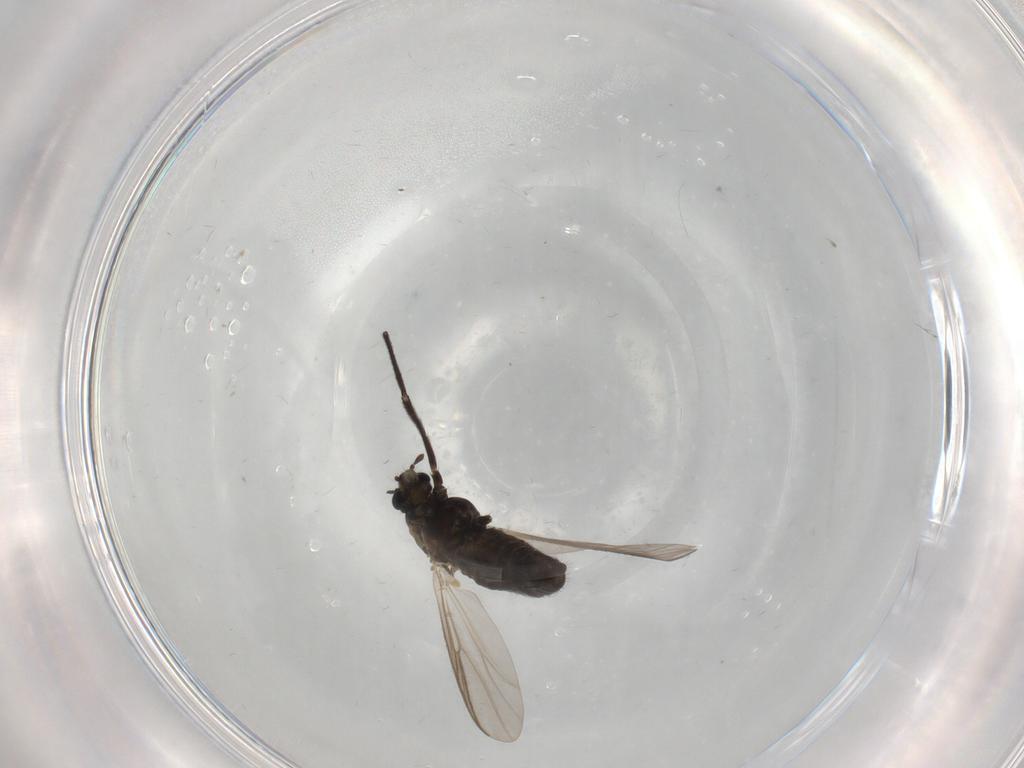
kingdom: Animalia
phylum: Arthropoda
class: Insecta
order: Diptera
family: Chironomidae
